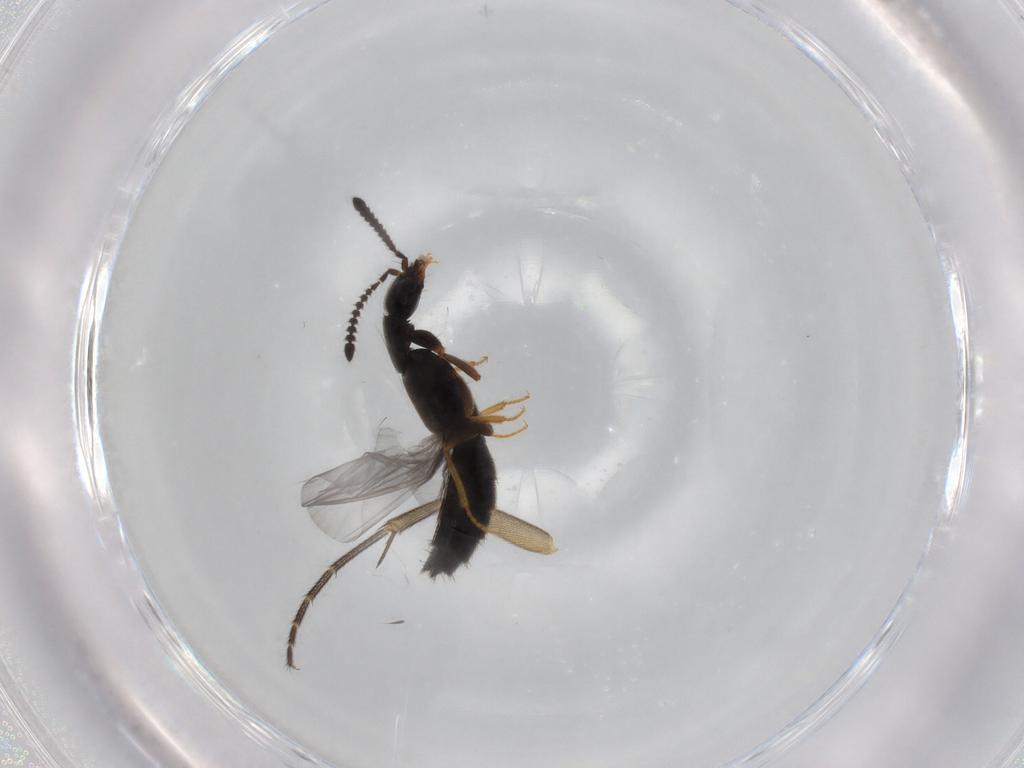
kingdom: Animalia
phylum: Arthropoda
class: Insecta
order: Coleoptera
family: Staphylinidae
